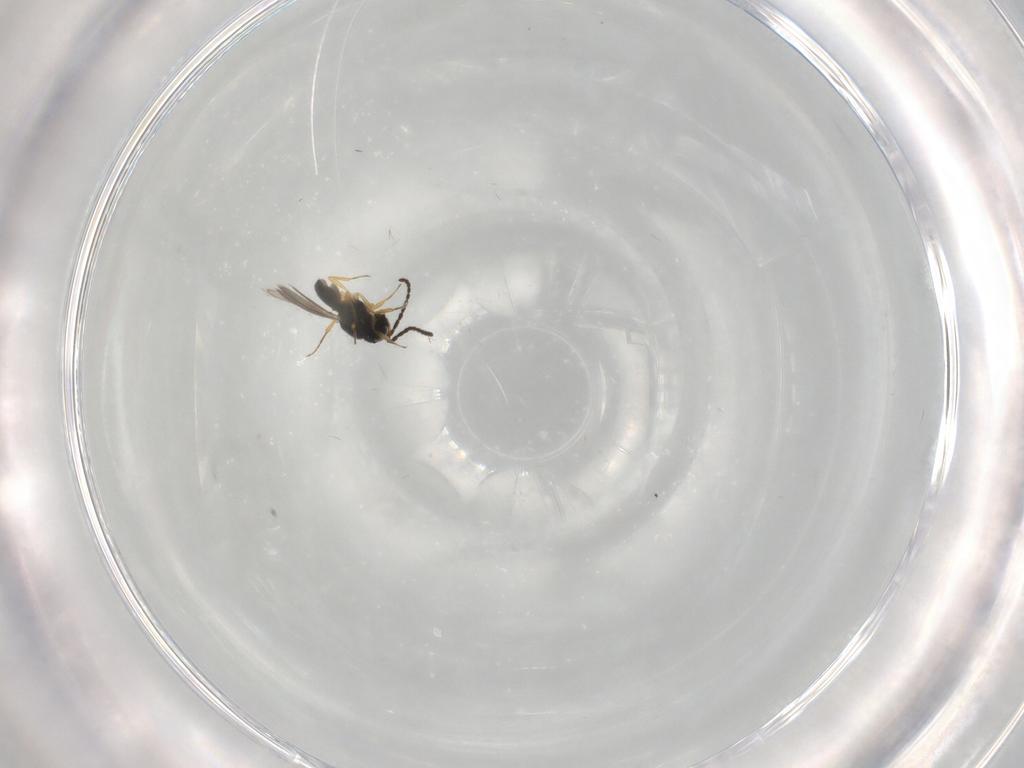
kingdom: Animalia
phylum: Arthropoda
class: Insecta
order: Hymenoptera
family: Scelionidae
